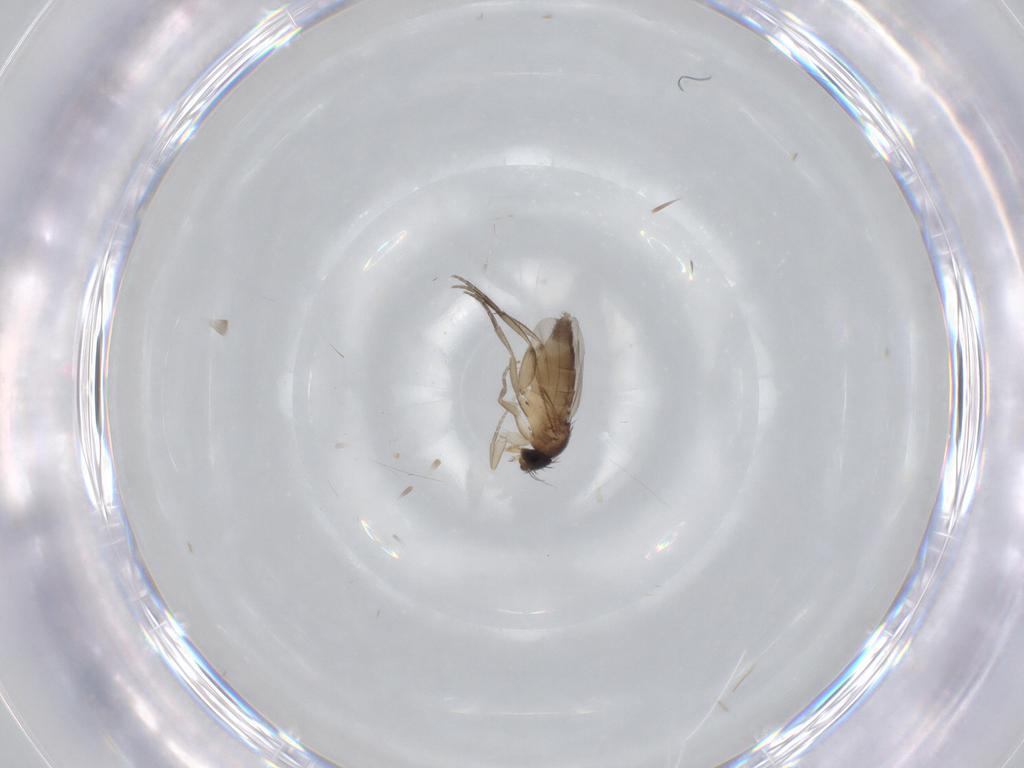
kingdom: Animalia
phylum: Arthropoda
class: Insecta
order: Diptera
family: Phoridae
